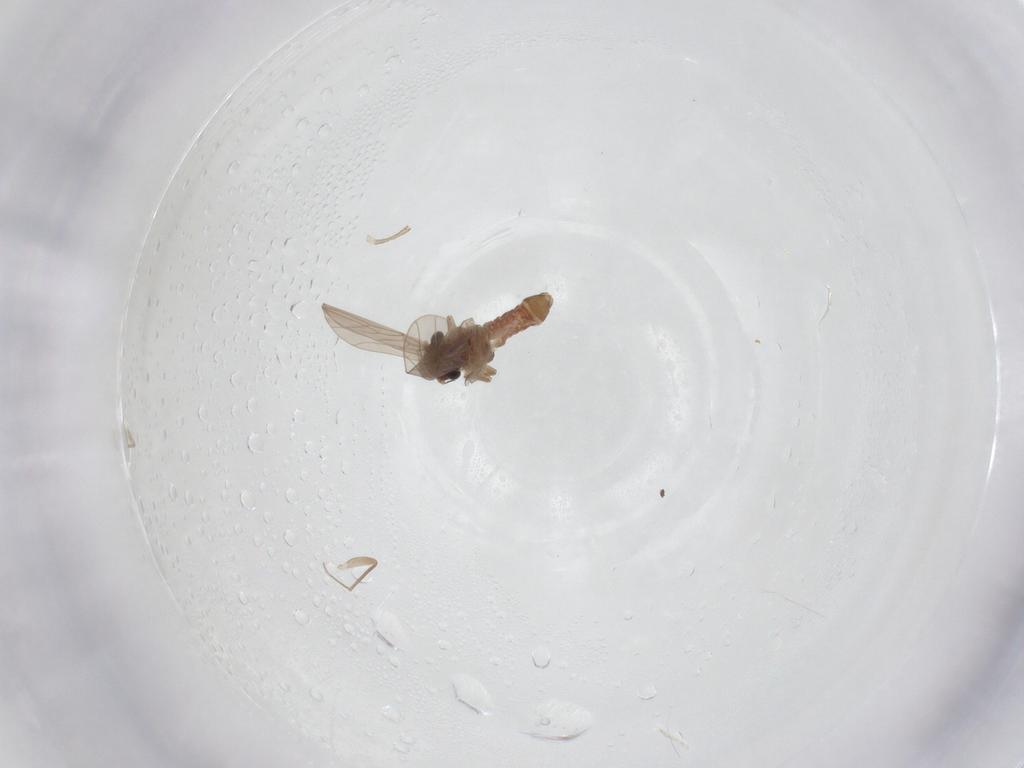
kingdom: Animalia
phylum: Arthropoda
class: Insecta
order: Psocodea
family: Lepidopsocidae
